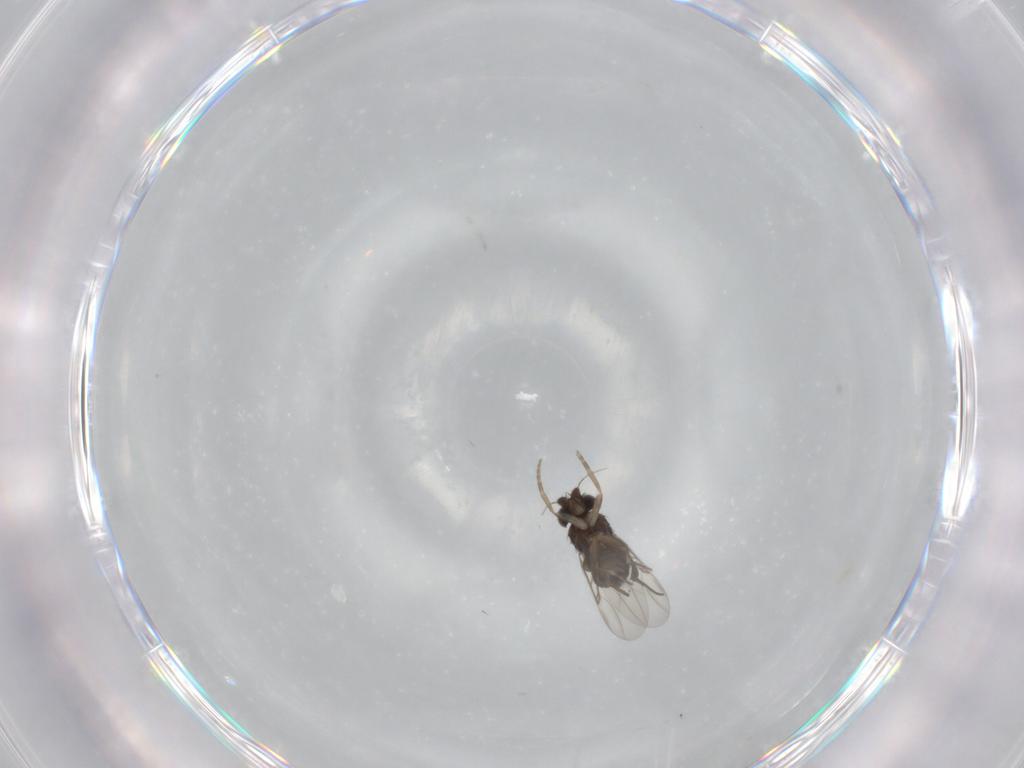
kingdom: Animalia
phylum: Arthropoda
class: Insecta
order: Diptera
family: Phoridae
